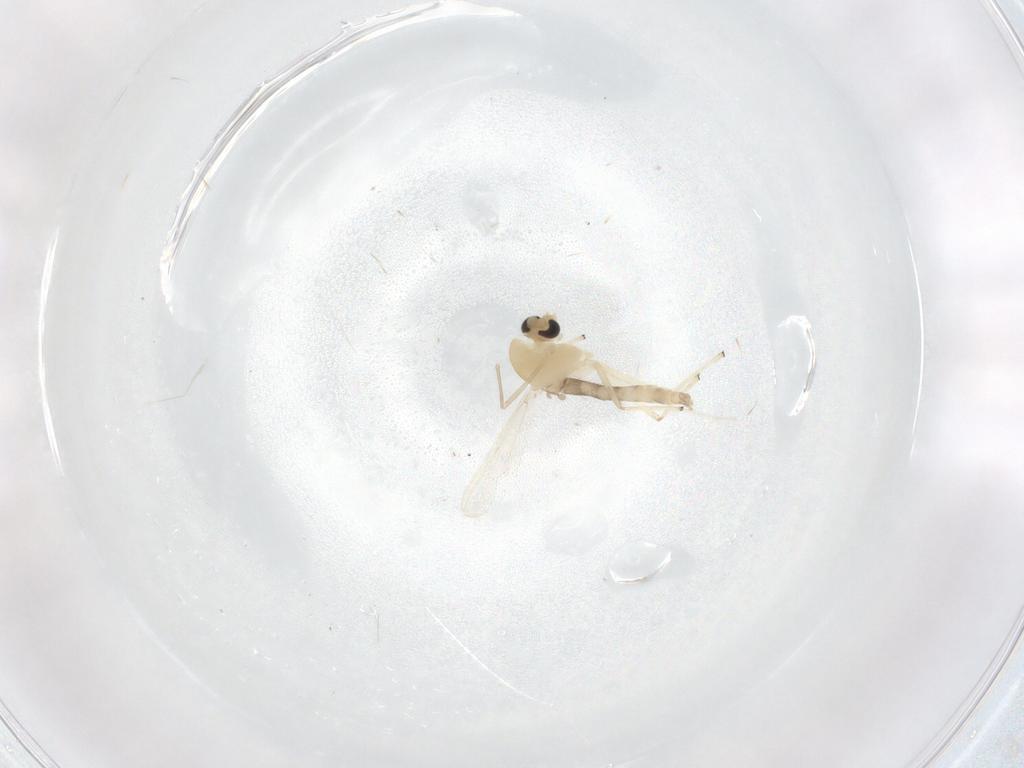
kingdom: Animalia
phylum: Arthropoda
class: Insecta
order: Diptera
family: Chironomidae
